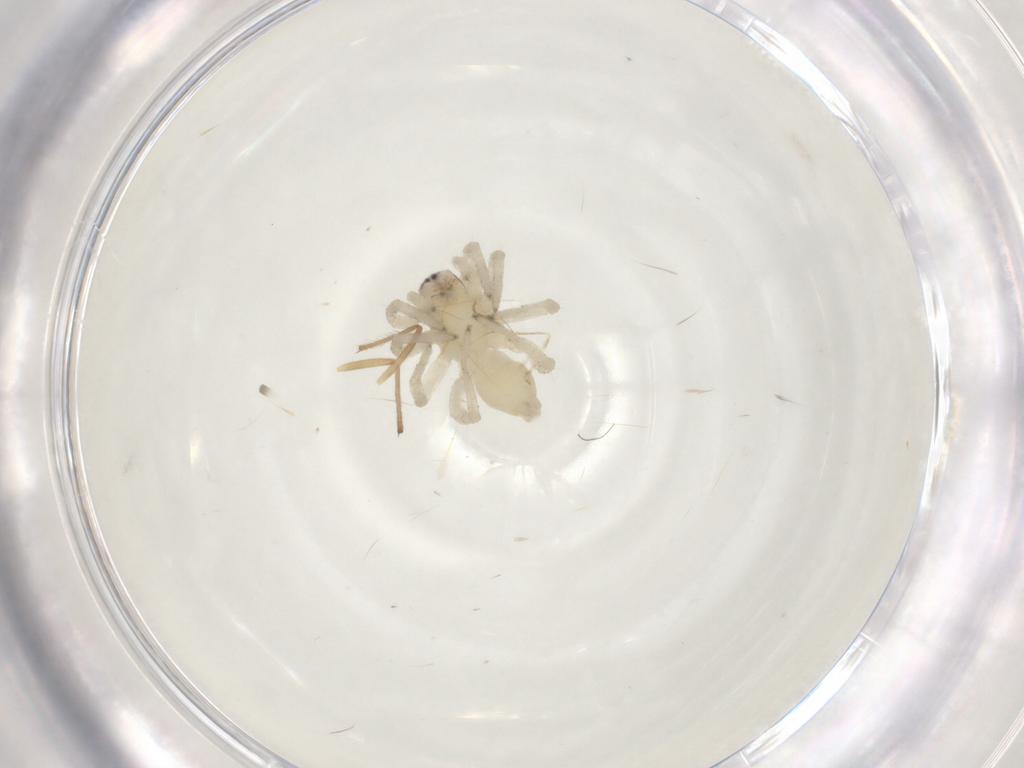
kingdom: Animalia
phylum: Arthropoda
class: Arachnida
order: Araneae
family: Clubionidae
